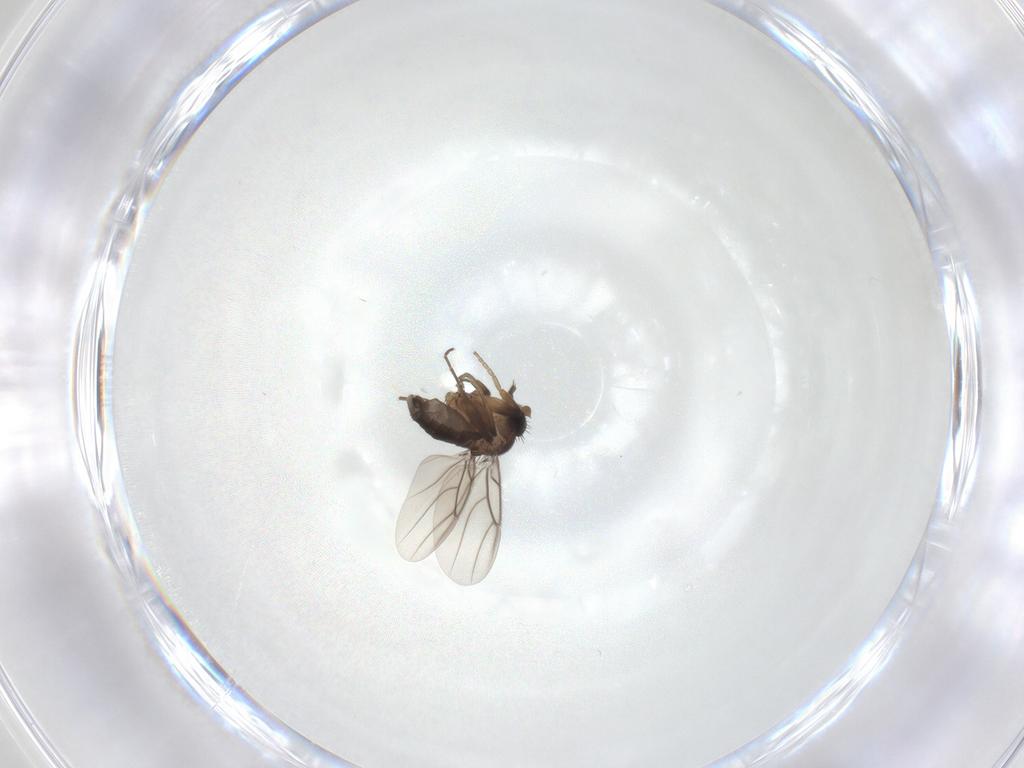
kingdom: Animalia
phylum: Arthropoda
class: Insecta
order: Diptera
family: Phoridae
